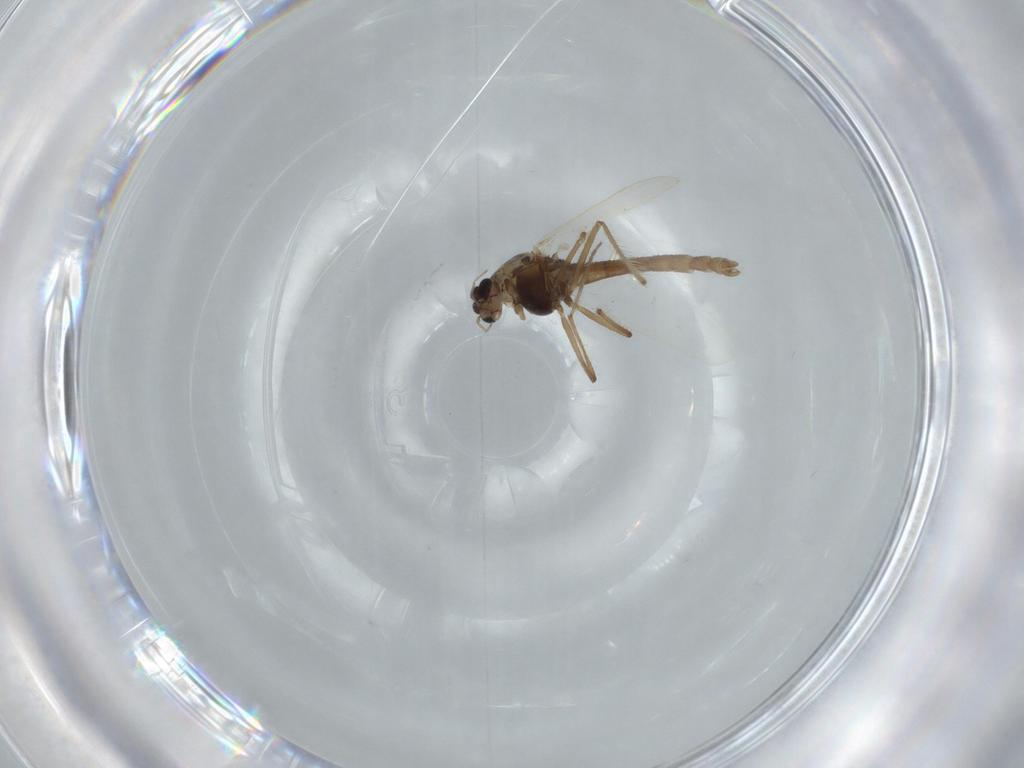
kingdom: Animalia
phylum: Arthropoda
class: Insecta
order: Diptera
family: Chironomidae
